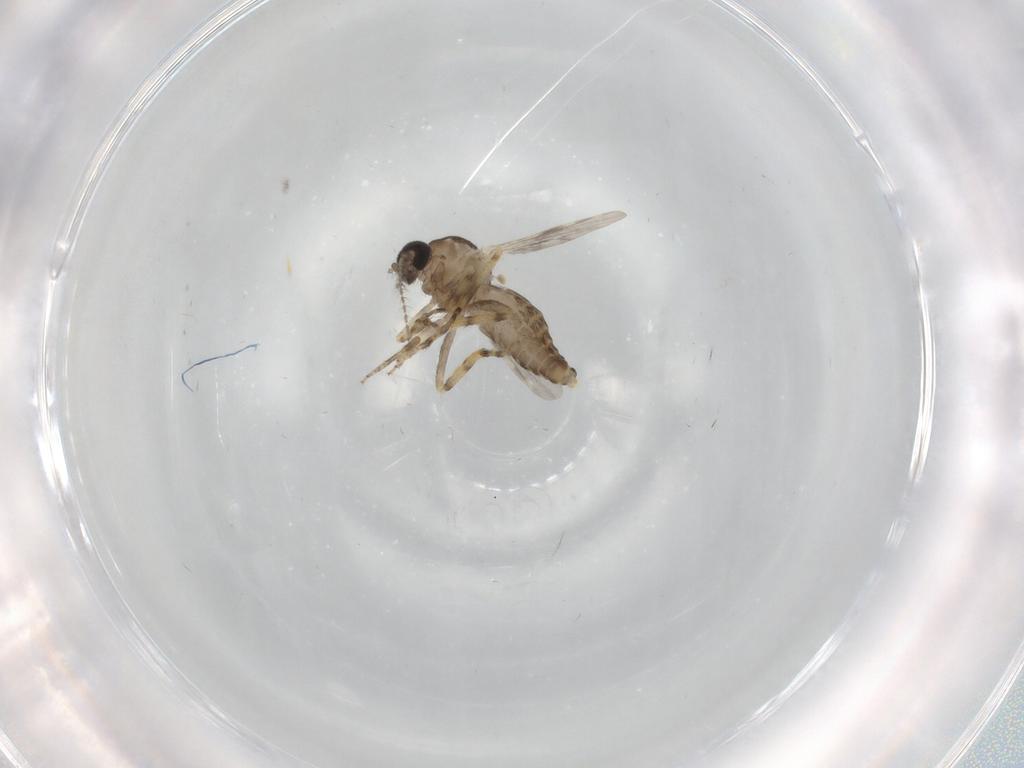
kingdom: Animalia
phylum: Arthropoda
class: Insecta
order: Diptera
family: Ceratopogonidae
